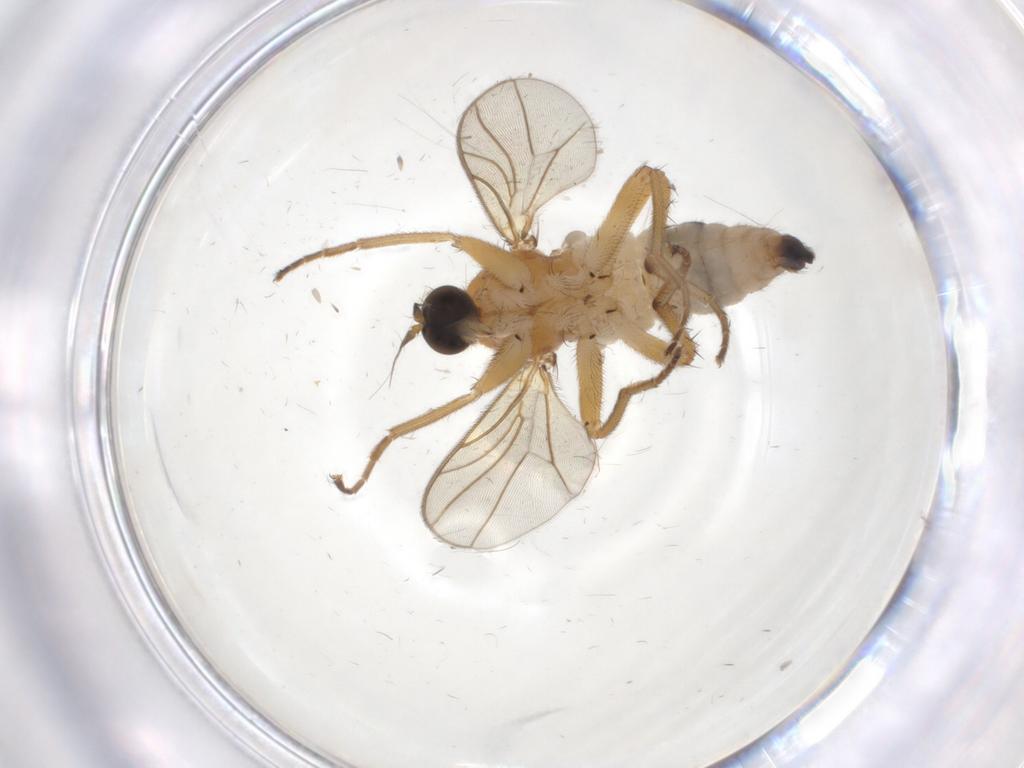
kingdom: Animalia
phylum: Arthropoda
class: Insecta
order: Diptera
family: Hybotidae
